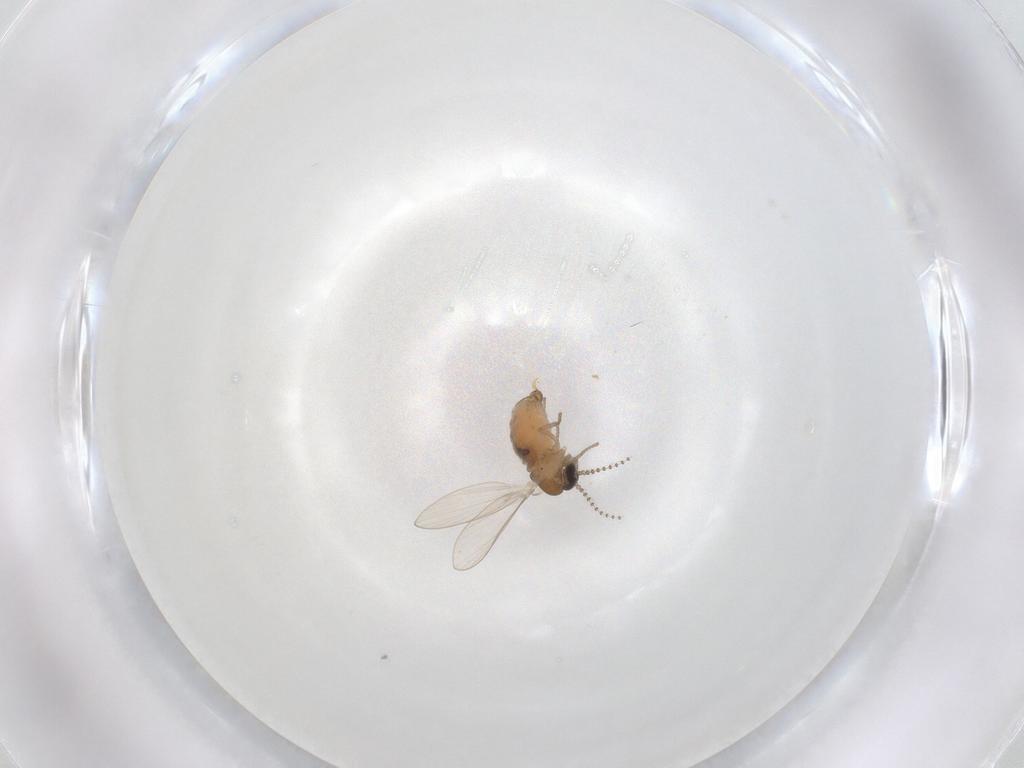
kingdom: Animalia
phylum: Arthropoda
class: Insecta
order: Diptera
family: Psychodidae
